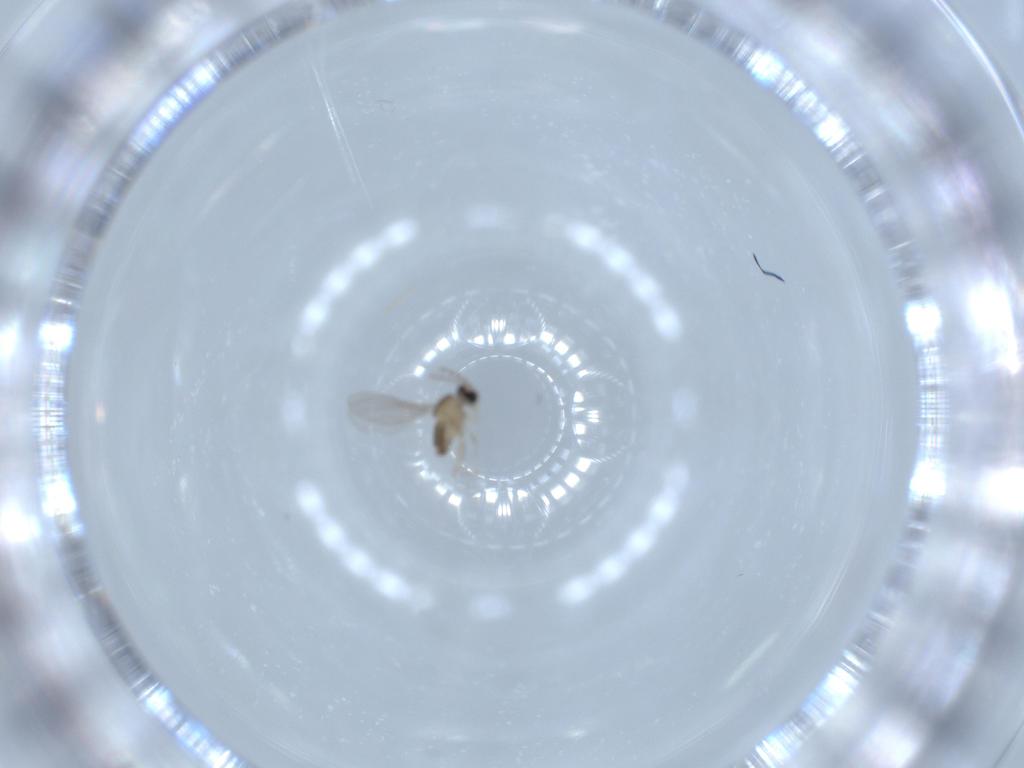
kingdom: Animalia
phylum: Arthropoda
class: Insecta
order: Diptera
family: Cecidomyiidae
